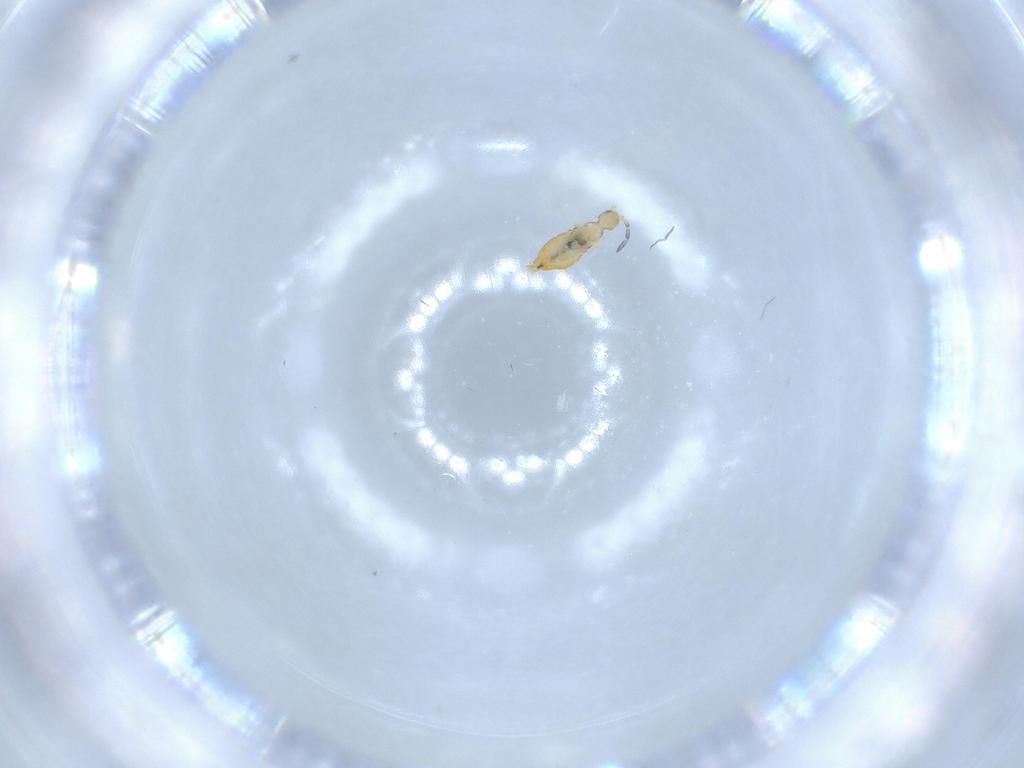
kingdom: Animalia
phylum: Arthropoda
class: Collembola
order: Entomobryomorpha
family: Entomobryidae
